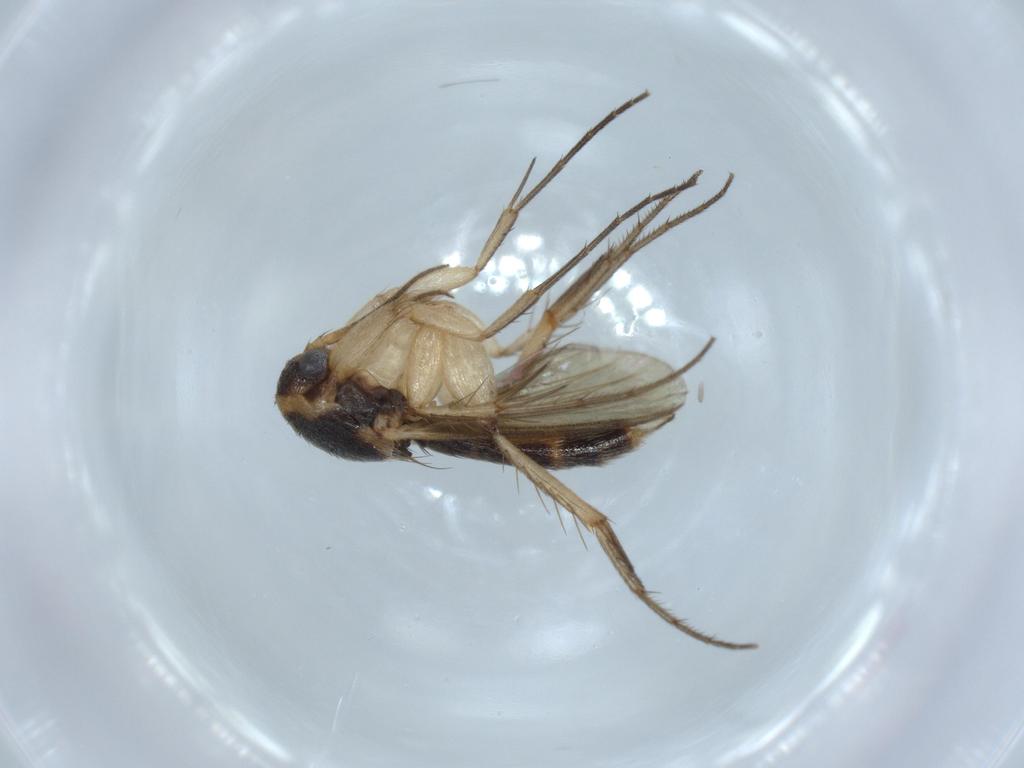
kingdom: Animalia
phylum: Arthropoda
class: Insecta
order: Diptera
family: Mycetophilidae
